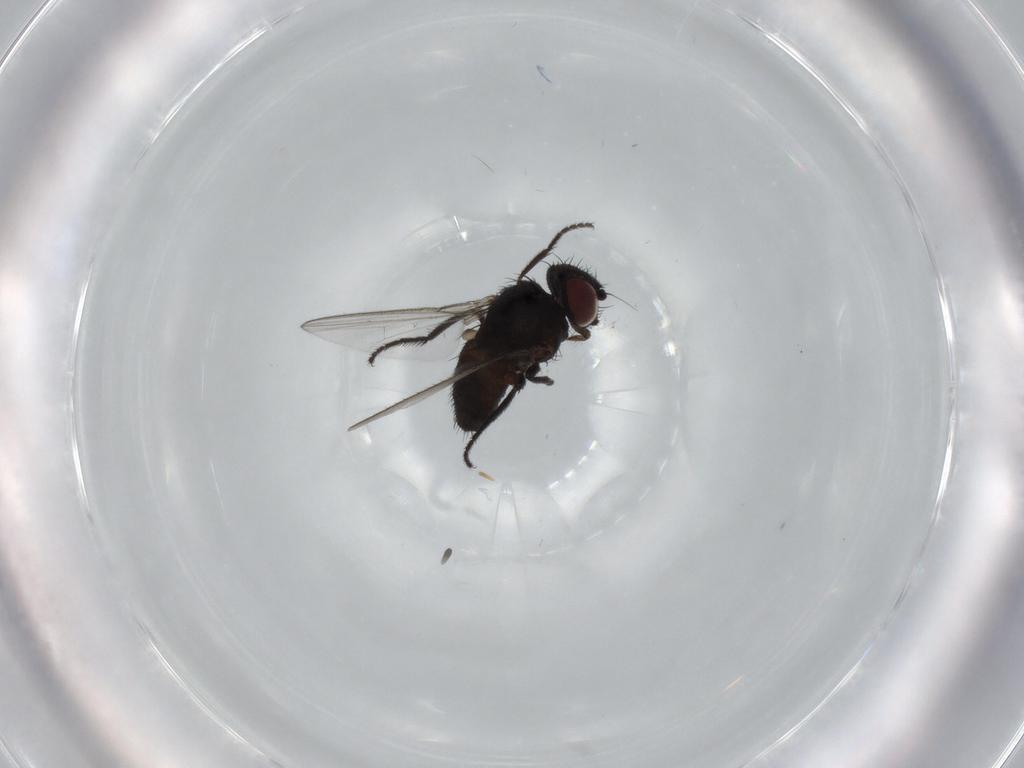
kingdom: Animalia
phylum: Arthropoda
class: Insecta
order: Diptera
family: Milichiidae
